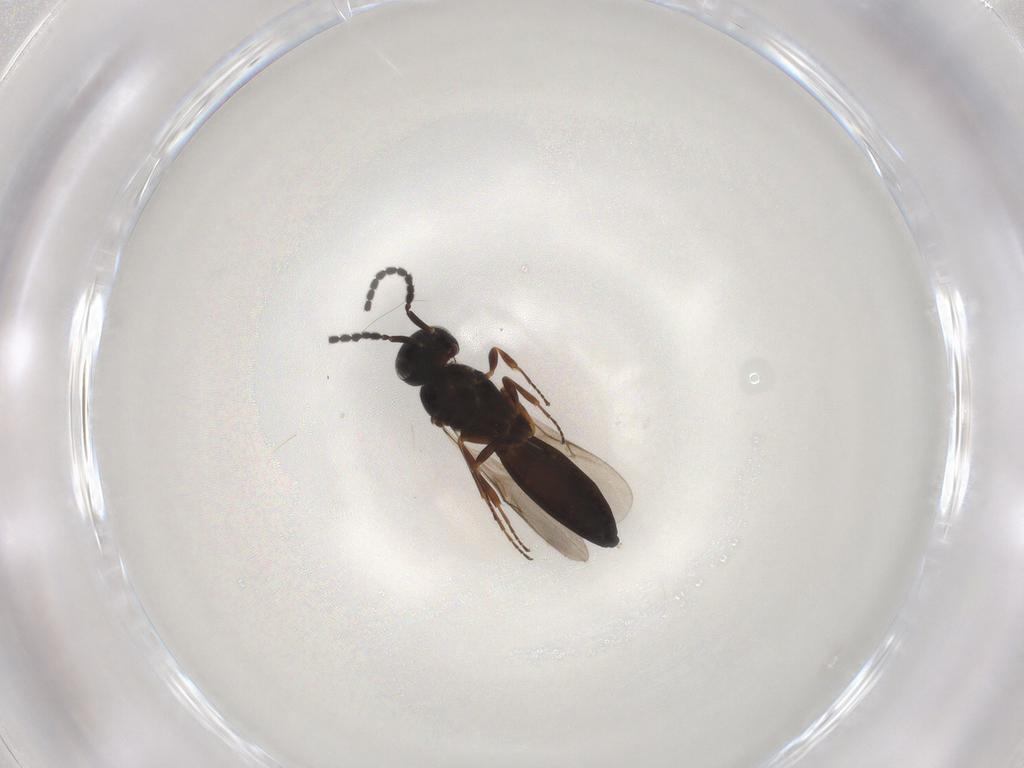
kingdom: Animalia
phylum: Arthropoda
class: Insecta
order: Hymenoptera
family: Scelionidae
